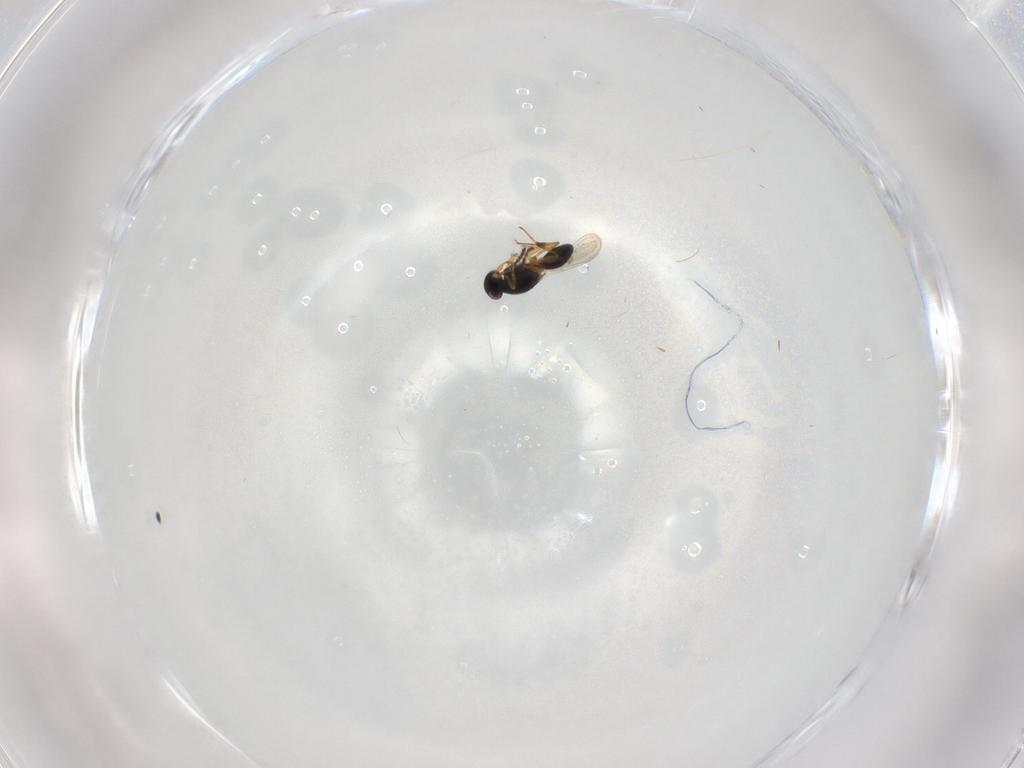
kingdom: Animalia
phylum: Arthropoda
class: Insecta
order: Hymenoptera
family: Platygastridae
